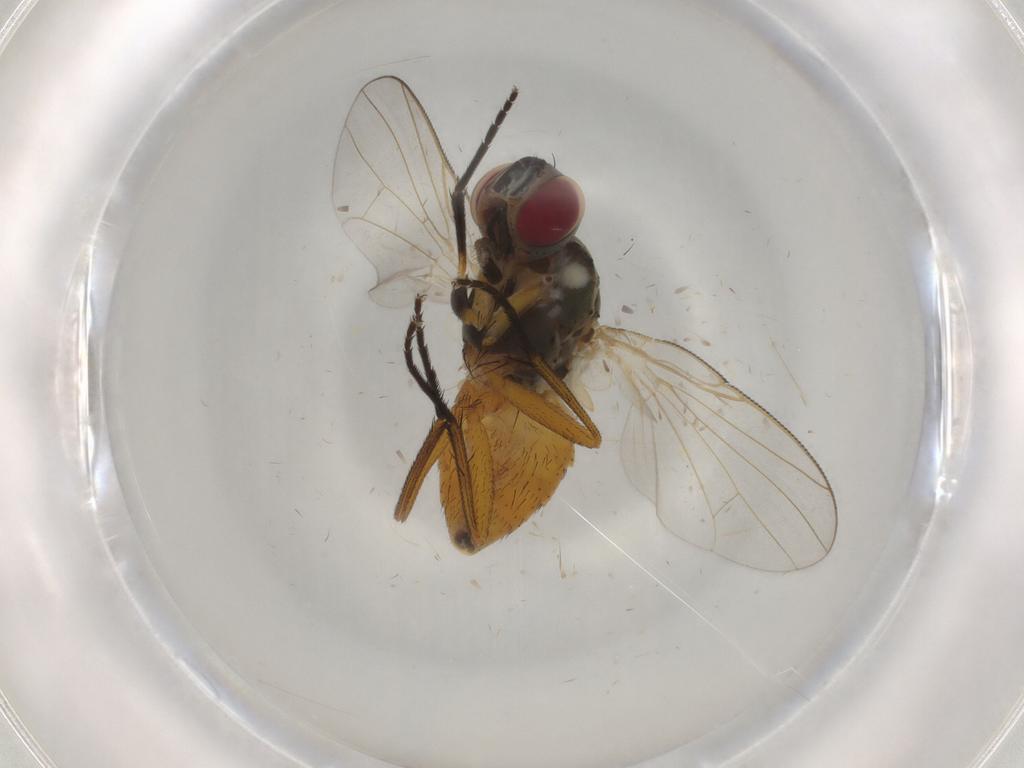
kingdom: Animalia
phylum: Arthropoda
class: Insecta
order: Diptera
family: Muscidae
